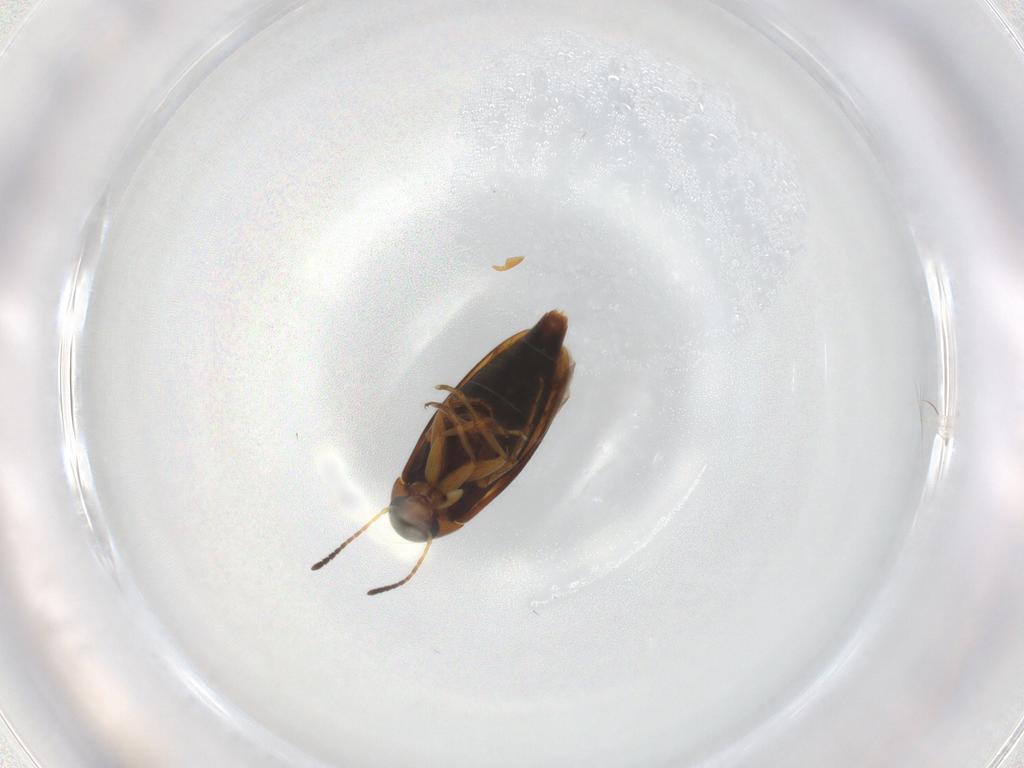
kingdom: Animalia
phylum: Arthropoda
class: Insecta
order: Coleoptera
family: Scraptiidae
